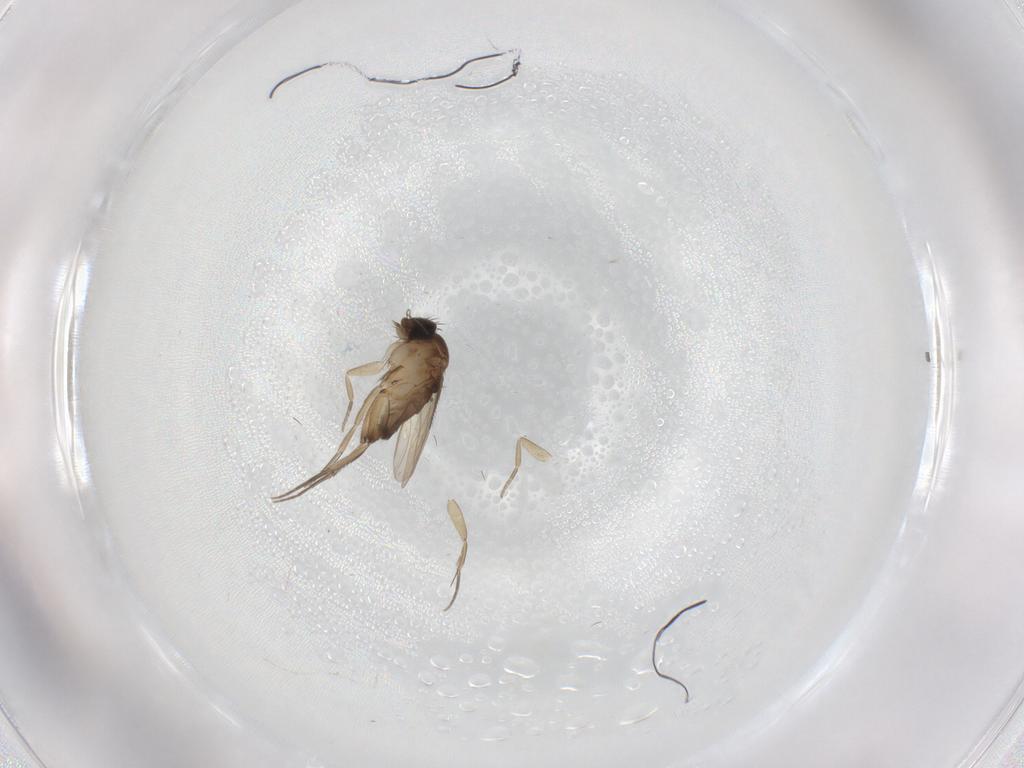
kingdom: Animalia
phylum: Arthropoda
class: Insecta
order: Diptera
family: Phoridae
